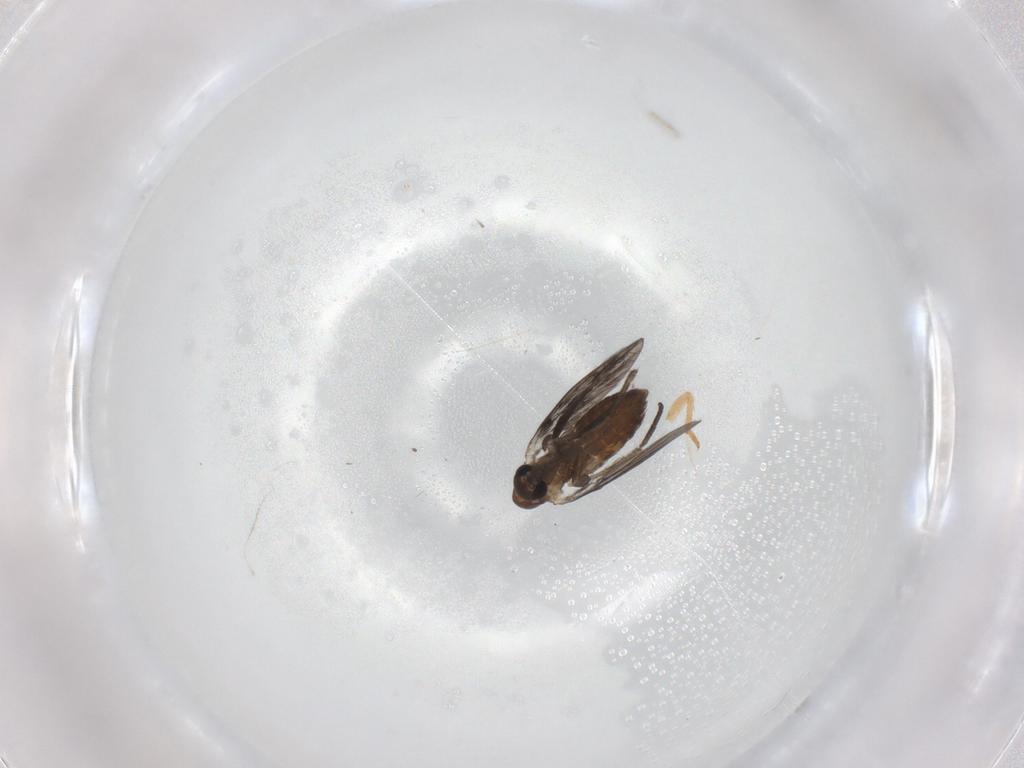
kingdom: Animalia
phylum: Arthropoda
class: Insecta
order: Diptera
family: Psychodidae
